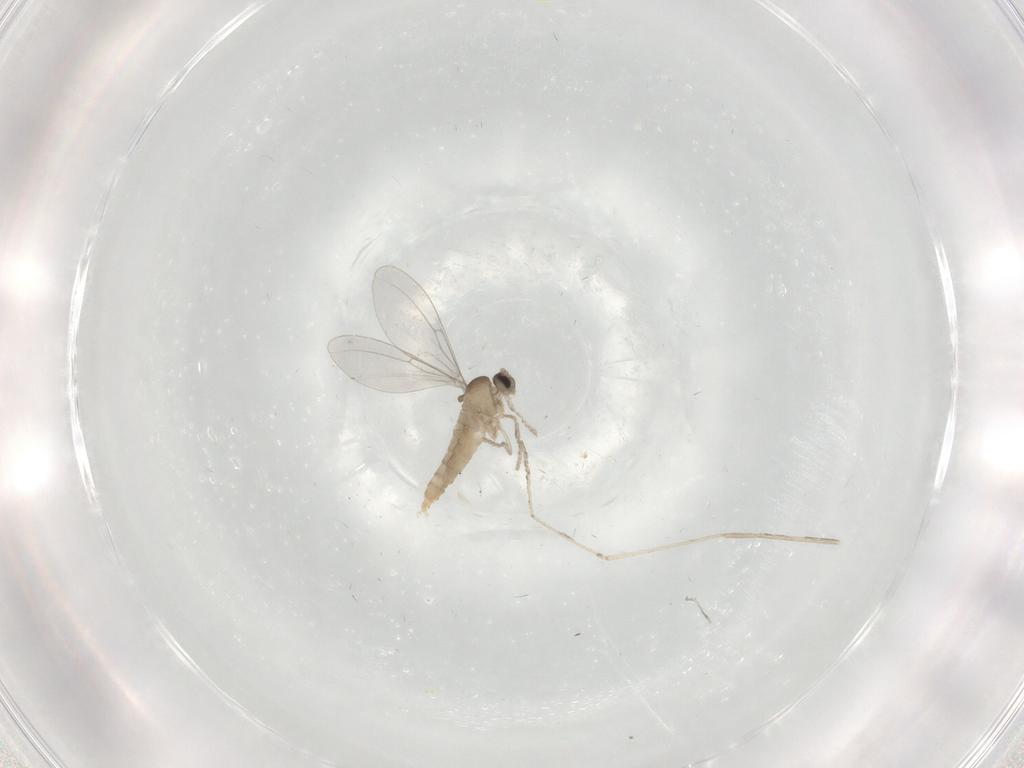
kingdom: Animalia
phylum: Arthropoda
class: Insecta
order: Diptera
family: Cecidomyiidae
